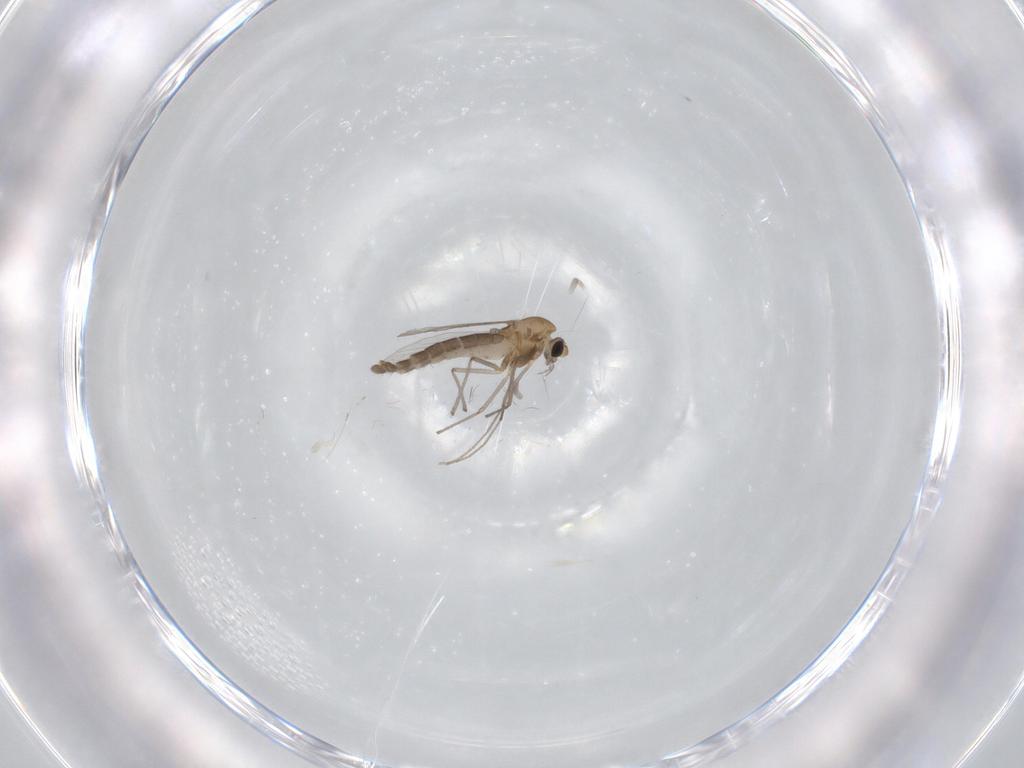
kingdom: Animalia
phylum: Arthropoda
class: Insecta
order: Diptera
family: Chironomidae
